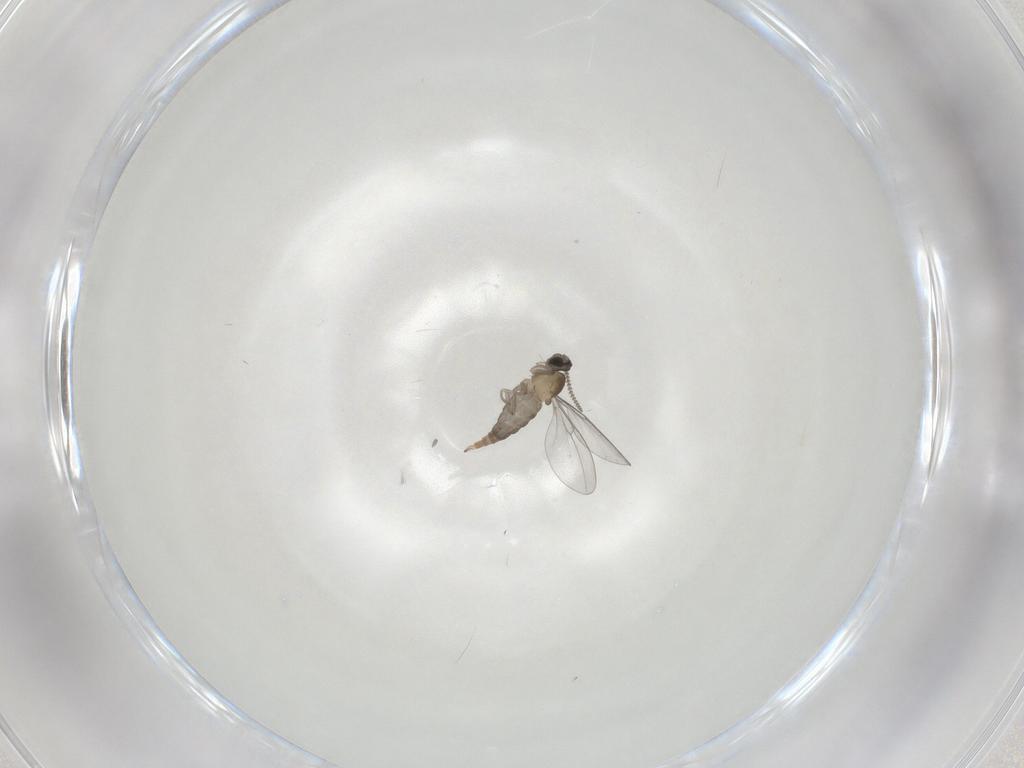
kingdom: Animalia
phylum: Arthropoda
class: Insecta
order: Diptera
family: Cecidomyiidae
